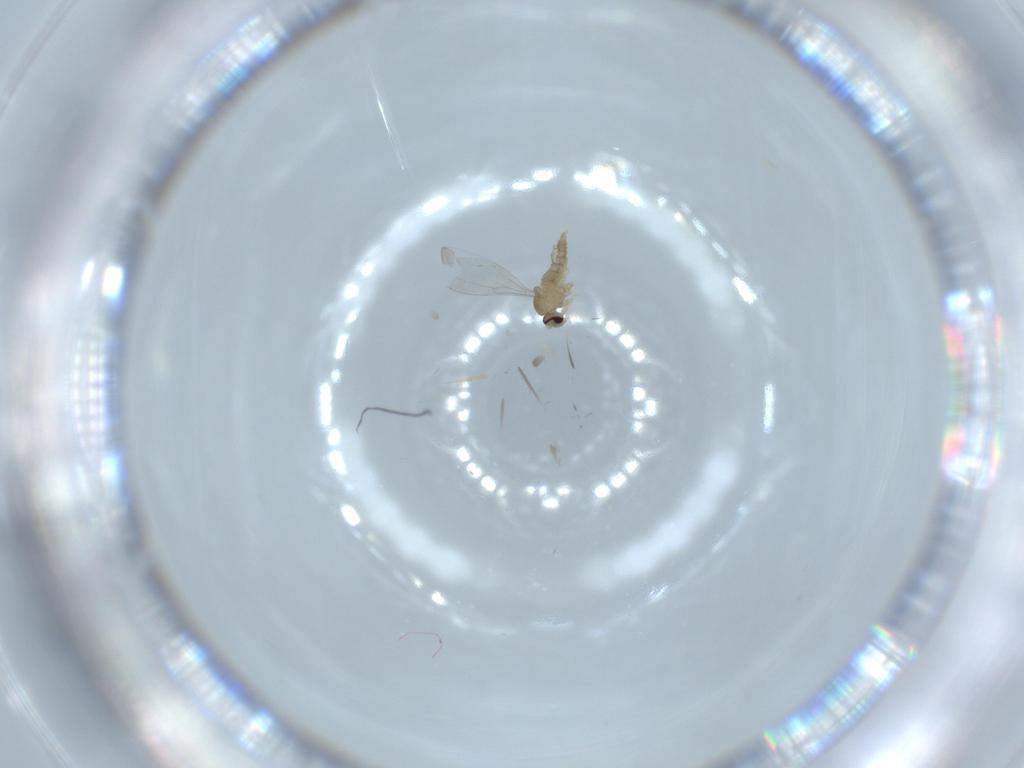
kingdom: Animalia
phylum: Arthropoda
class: Insecta
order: Diptera
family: Cecidomyiidae
